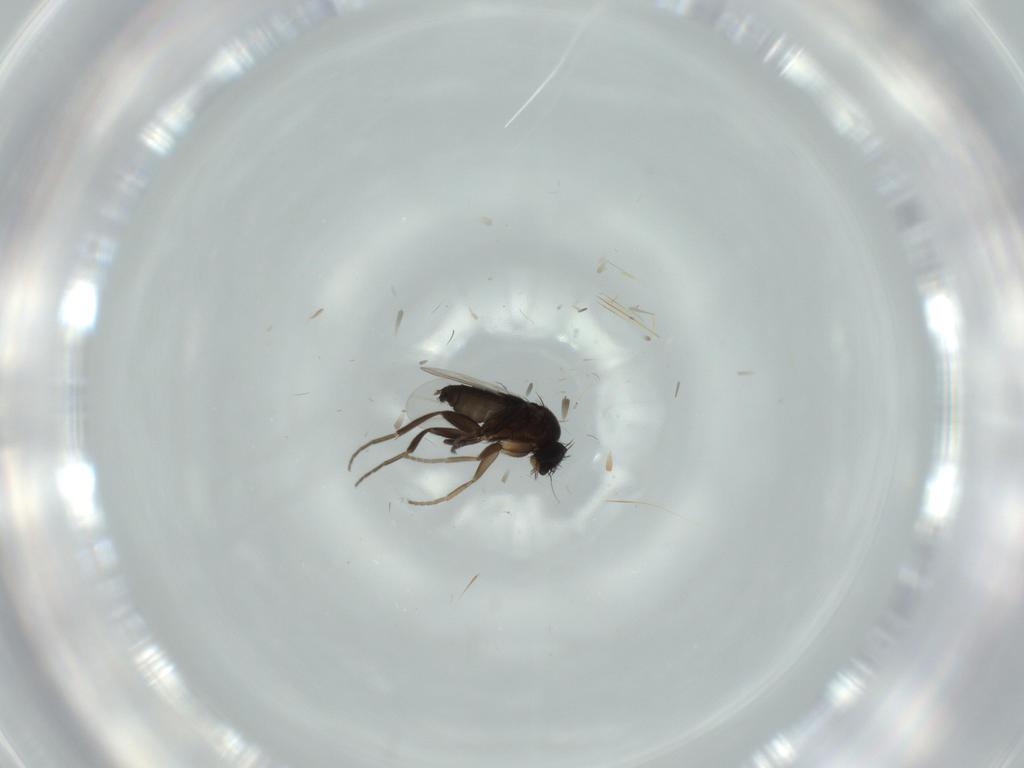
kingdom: Animalia
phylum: Arthropoda
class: Insecta
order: Diptera
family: Phoridae
